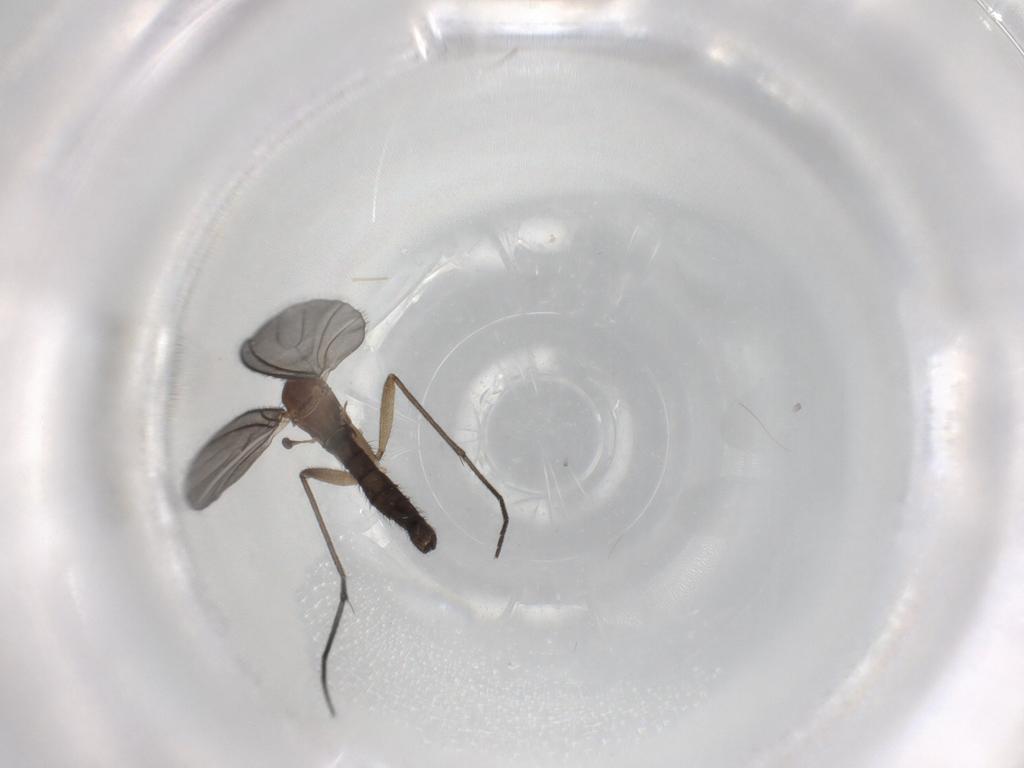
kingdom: Animalia
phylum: Arthropoda
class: Insecta
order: Diptera
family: Sciaridae
